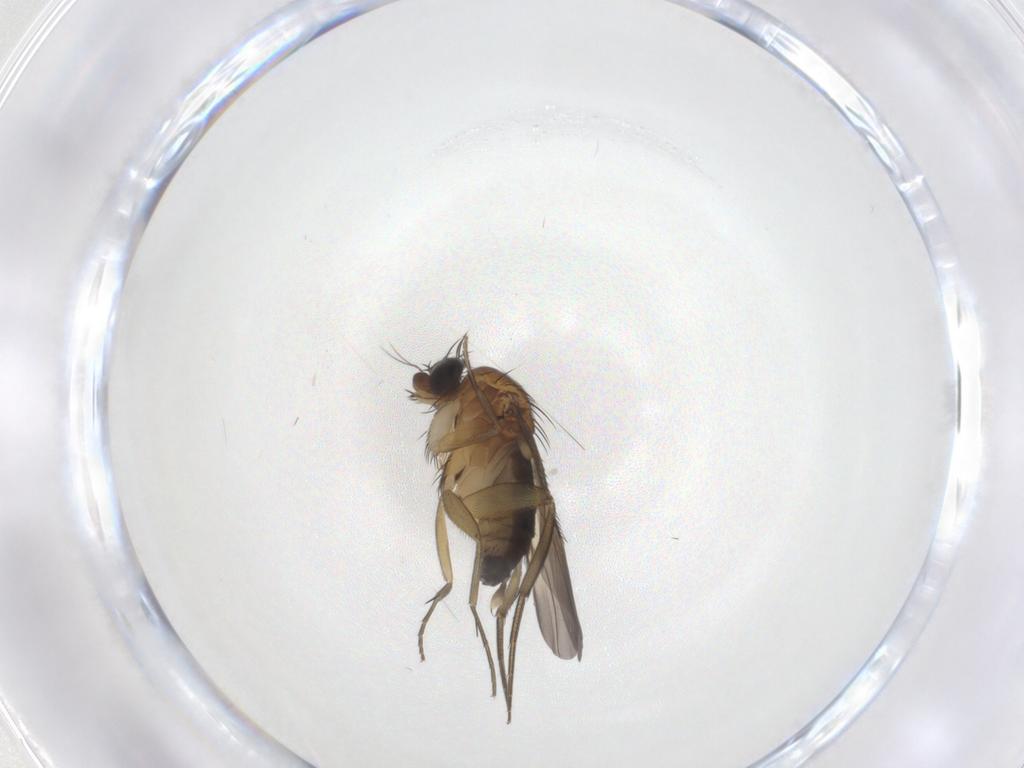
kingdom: Animalia
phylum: Arthropoda
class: Insecta
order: Diptera
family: Phoridae
